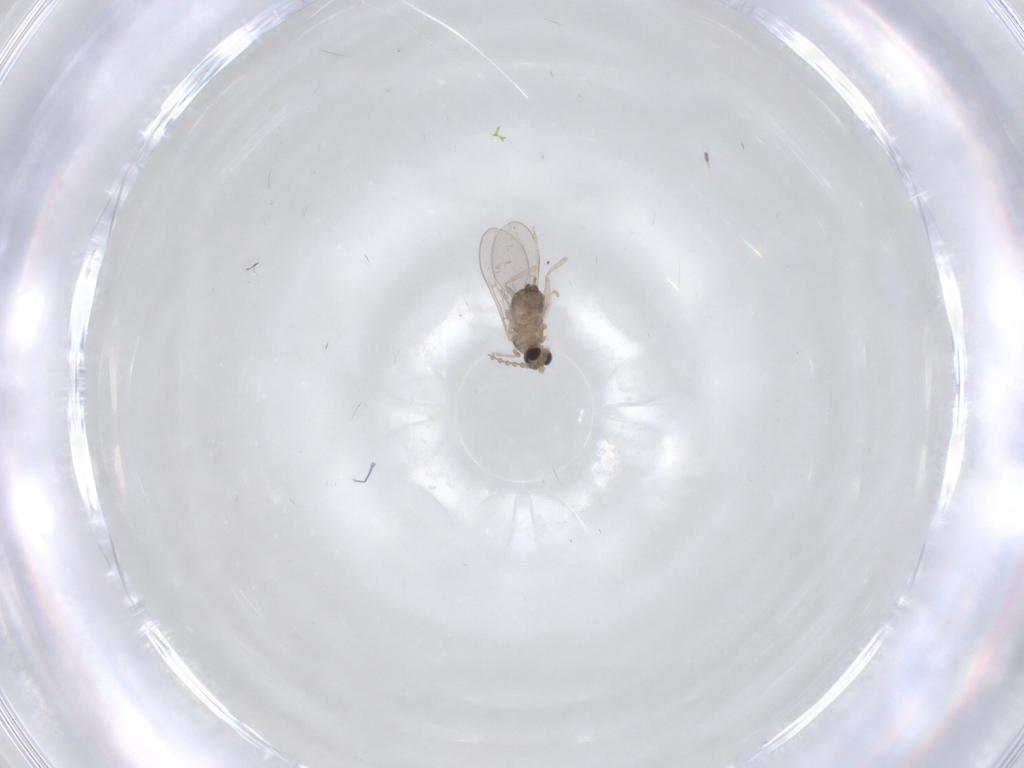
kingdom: Animalia
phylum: Arthropoda
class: Insecta
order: Diptera
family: Cecidomyiidae
